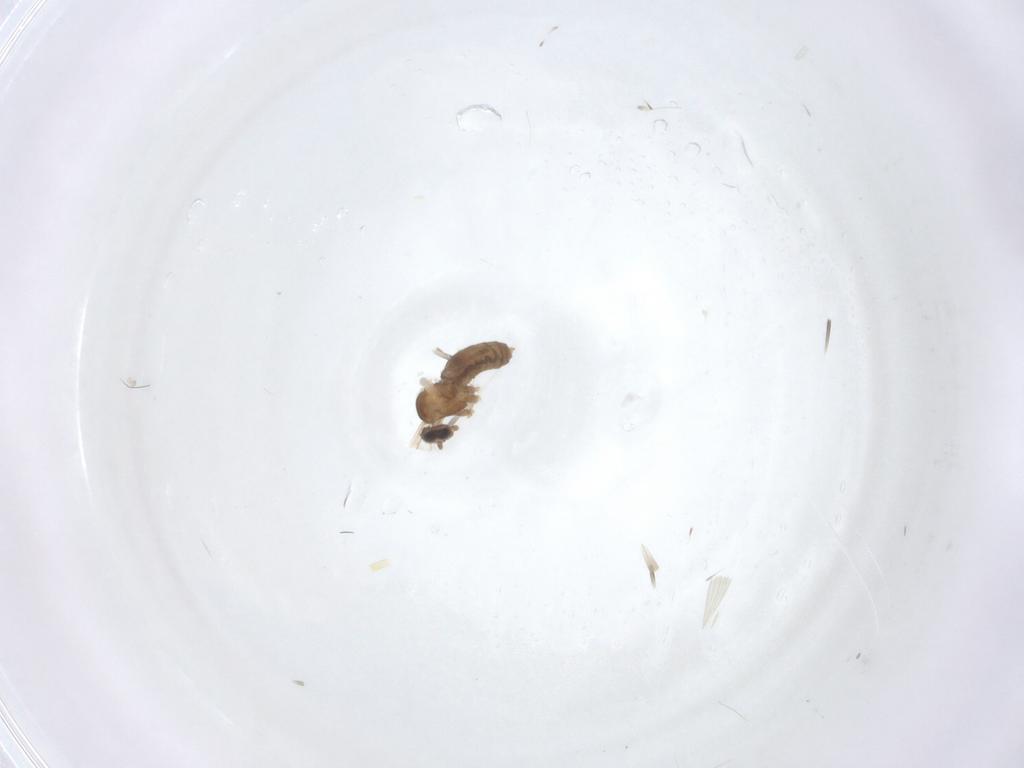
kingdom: Animalia
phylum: Arthropoda
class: Insecta
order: Diptera
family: Cecidomyiidae
